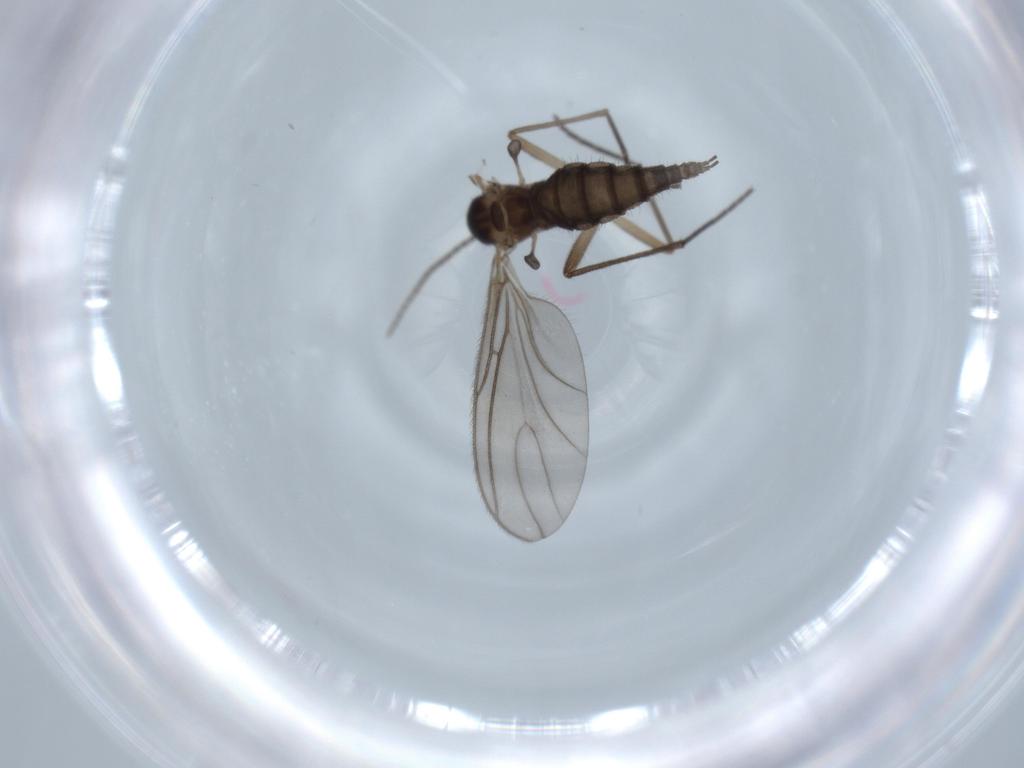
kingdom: Animalia
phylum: Arthropoda
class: Insecta
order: Diptera
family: Sciaridae
